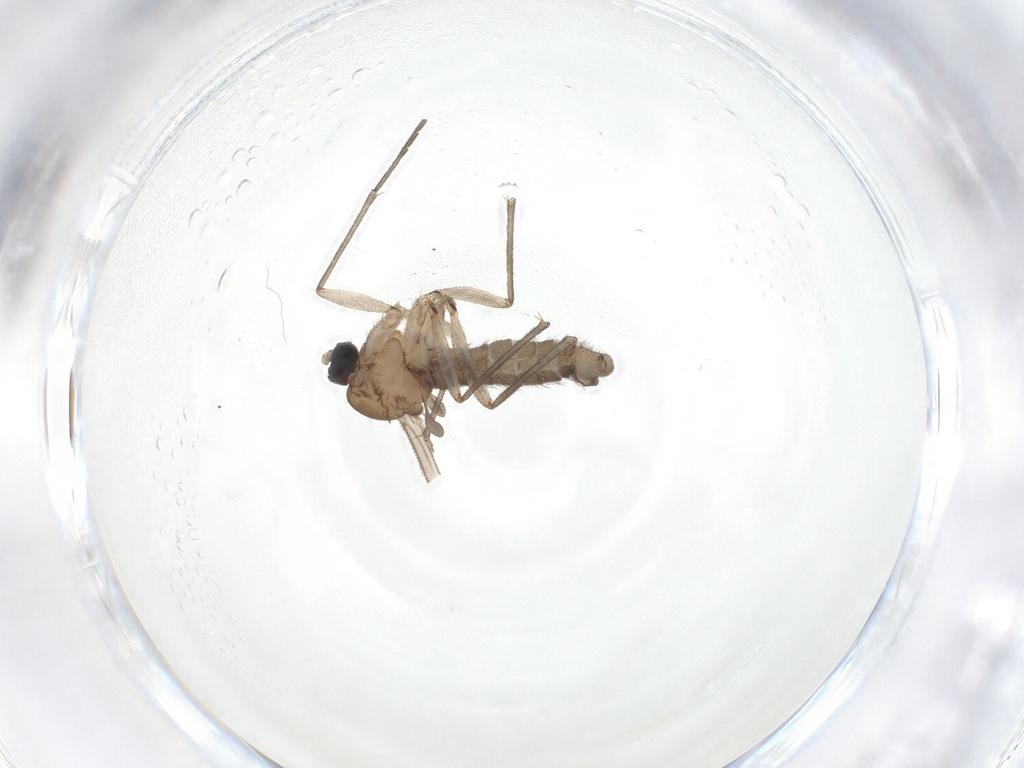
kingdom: Animalia
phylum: Arthropoda
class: Insecta
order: Diptera
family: Sciaridae
